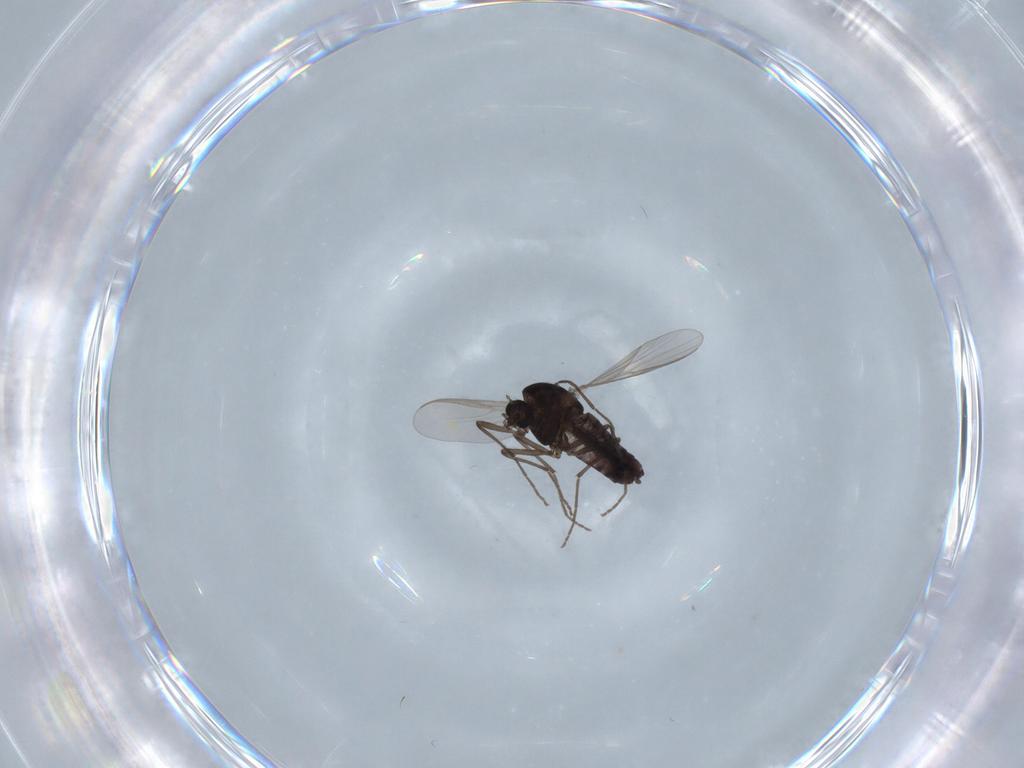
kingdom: Animalia
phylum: Arthropoda
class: Insecta
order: Diptera
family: Chironomidae
